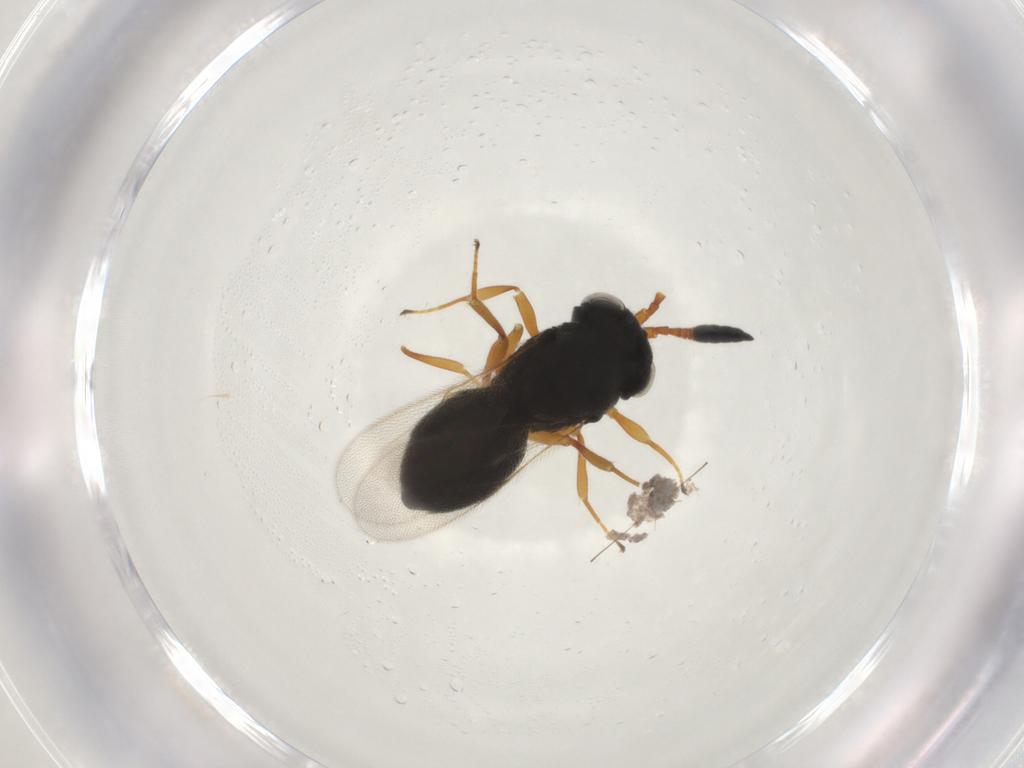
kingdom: Animalia
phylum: Arthropoda
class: Insecta
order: Hymenoptera
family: Scelionidae
